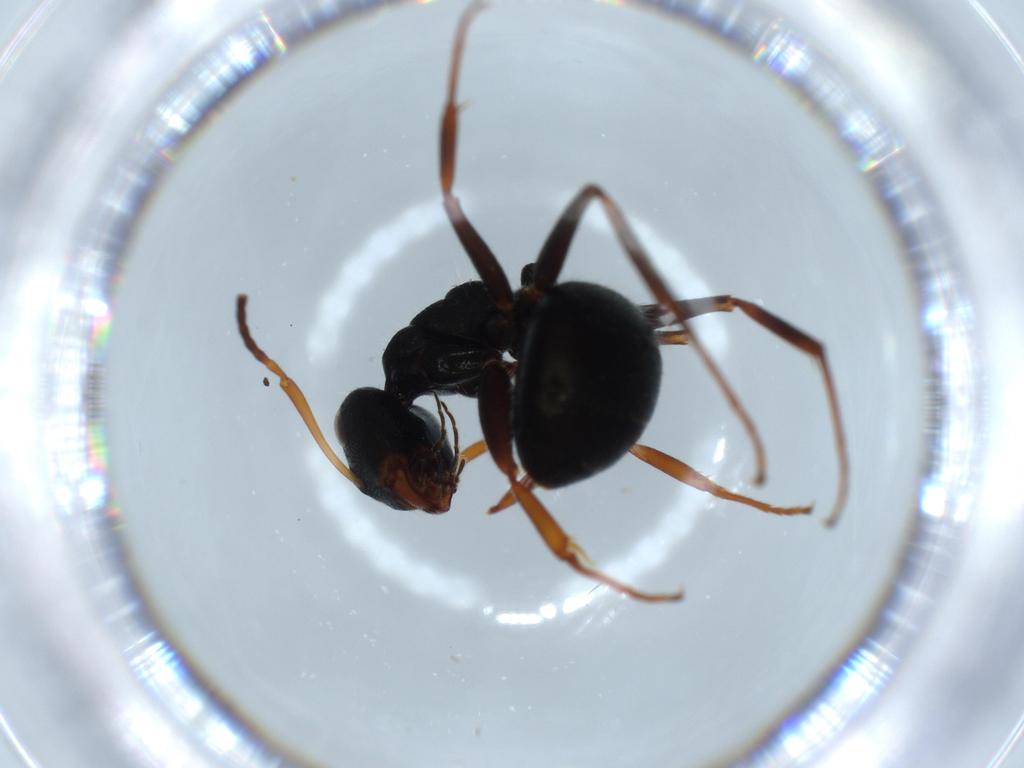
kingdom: Animalia
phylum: Arthropoda
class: Insecta
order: Hymenoptera
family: Formicidae
